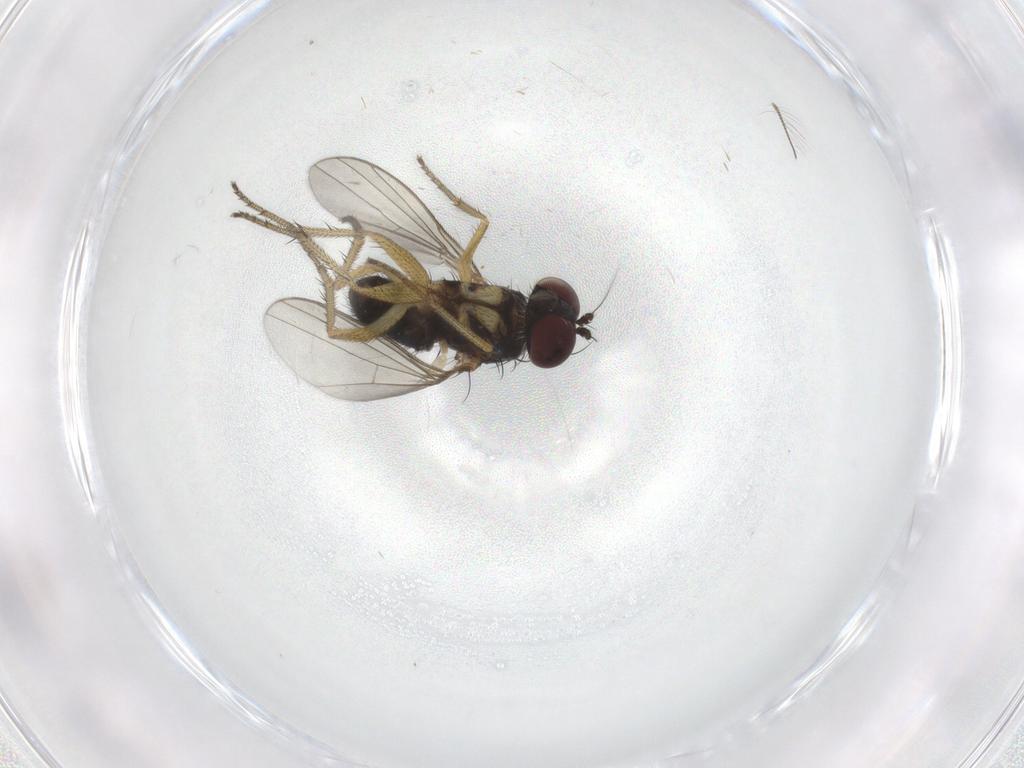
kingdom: Animalia
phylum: Arthropoda
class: Insecta
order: Diptera
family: Chironomidae
